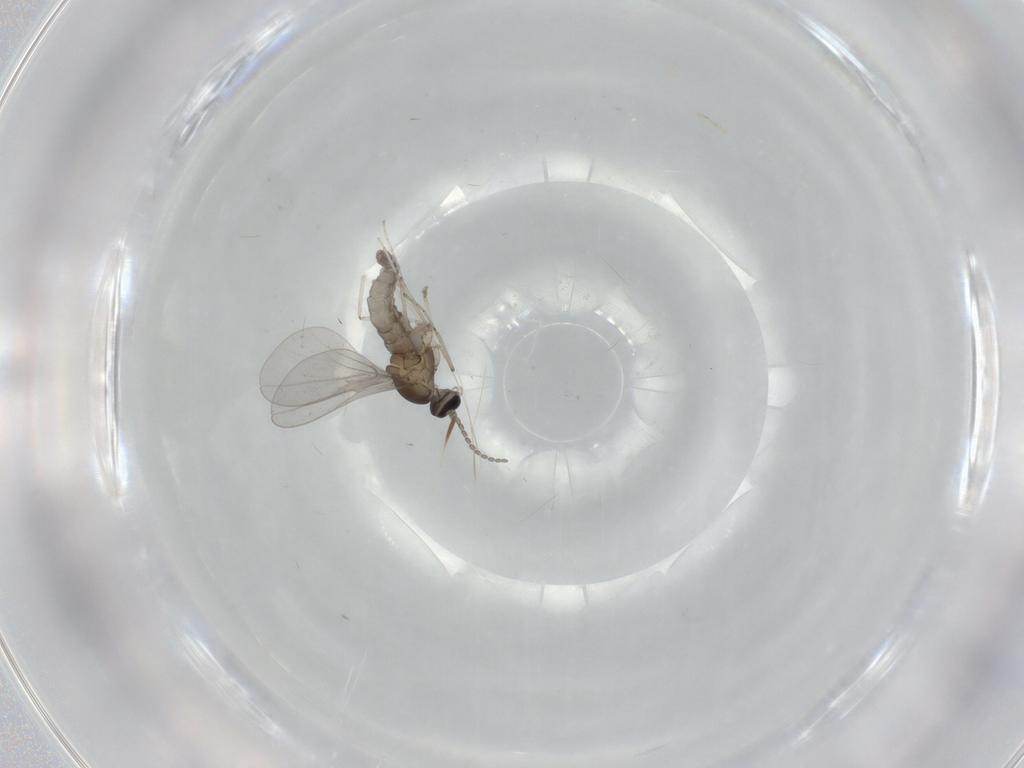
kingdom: Animalia
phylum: Arthropoda
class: Insecta
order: Diptera
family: Cecidomyiidae
